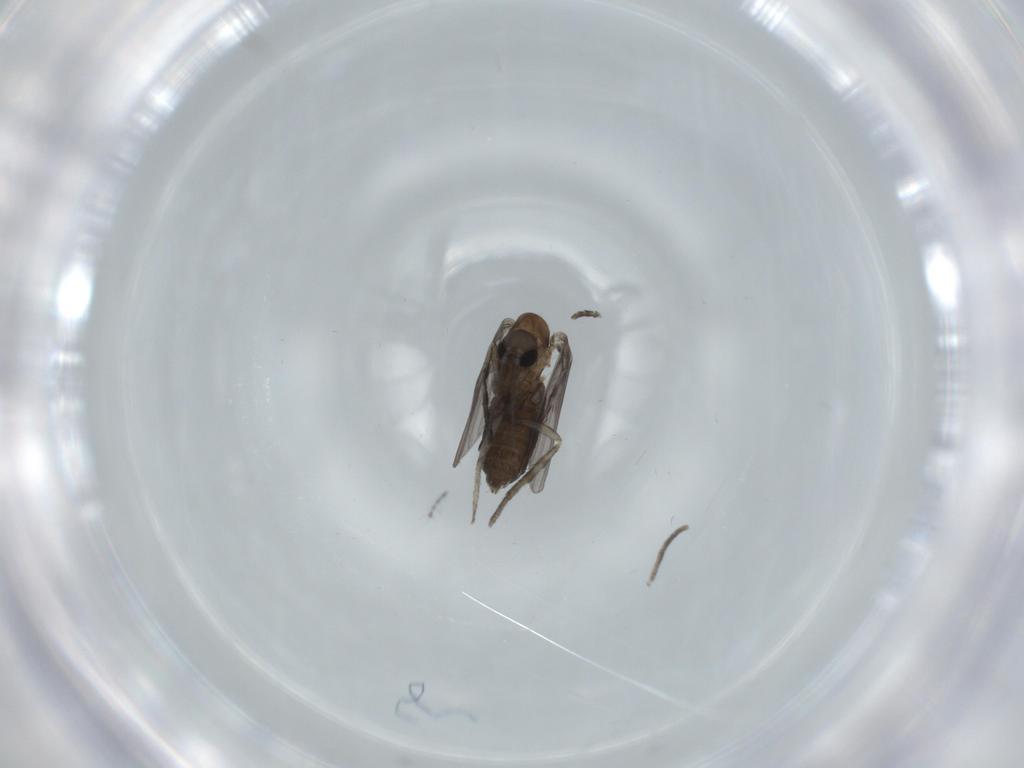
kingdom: Animalia
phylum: Arthropoda
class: Insecta
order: Diptera
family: Psychodidae
